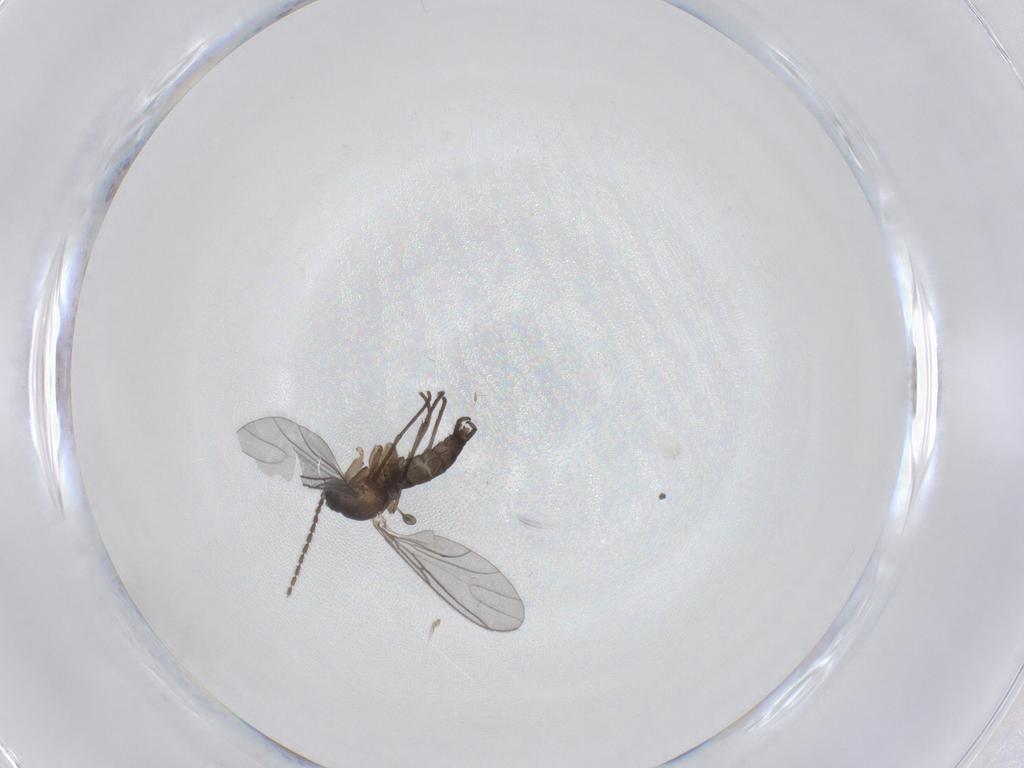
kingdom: Animalia
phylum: Arthropoda
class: Insecta
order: Diptera
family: Sciaridae
